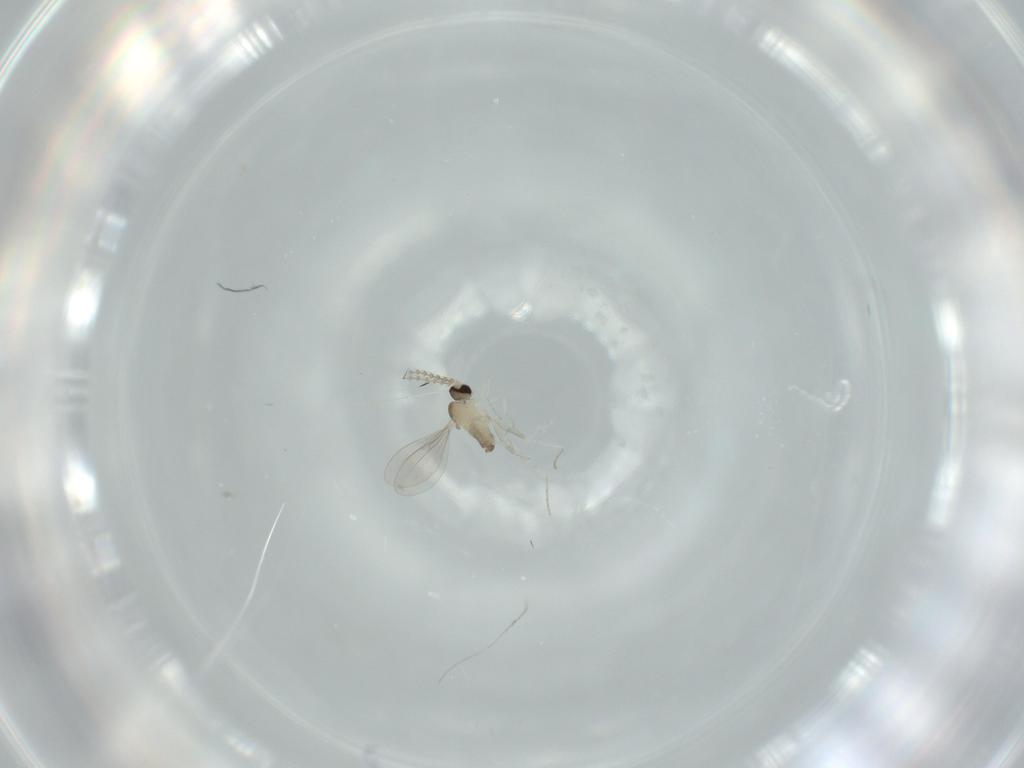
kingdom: Animalia
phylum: Arthropoda
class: Insecta
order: Diptera
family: Cecidomyiidae
